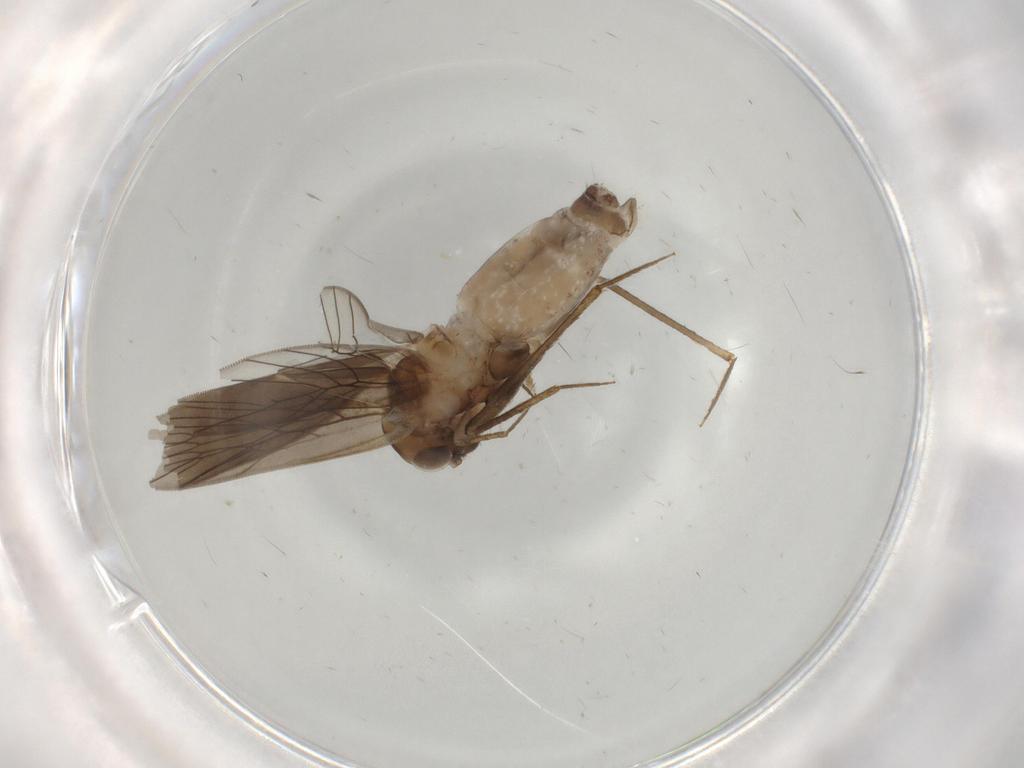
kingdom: Animalia
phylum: Arthropoda
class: Insecta
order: Psocodea
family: Lepidopsocidae
